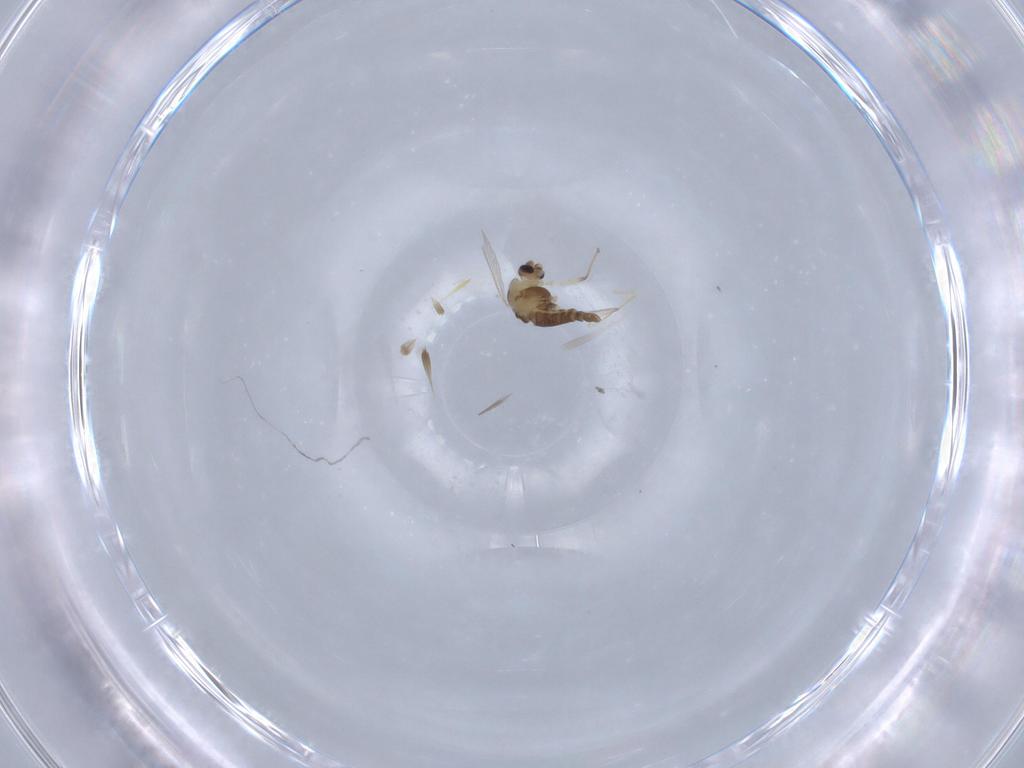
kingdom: Animalia
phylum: Arthropoda
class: Insecta
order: Diptera
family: Chironomidae
